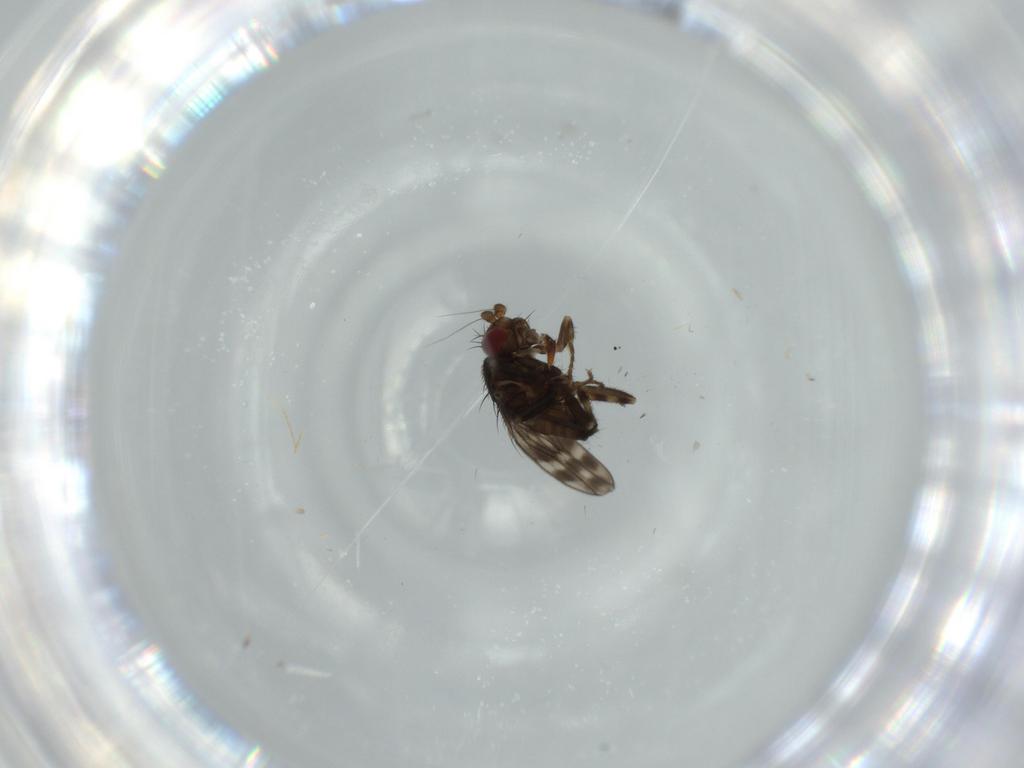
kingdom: Animalia
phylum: Arthropoda
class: Insecta
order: Diptera
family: Sphaeroceridae
